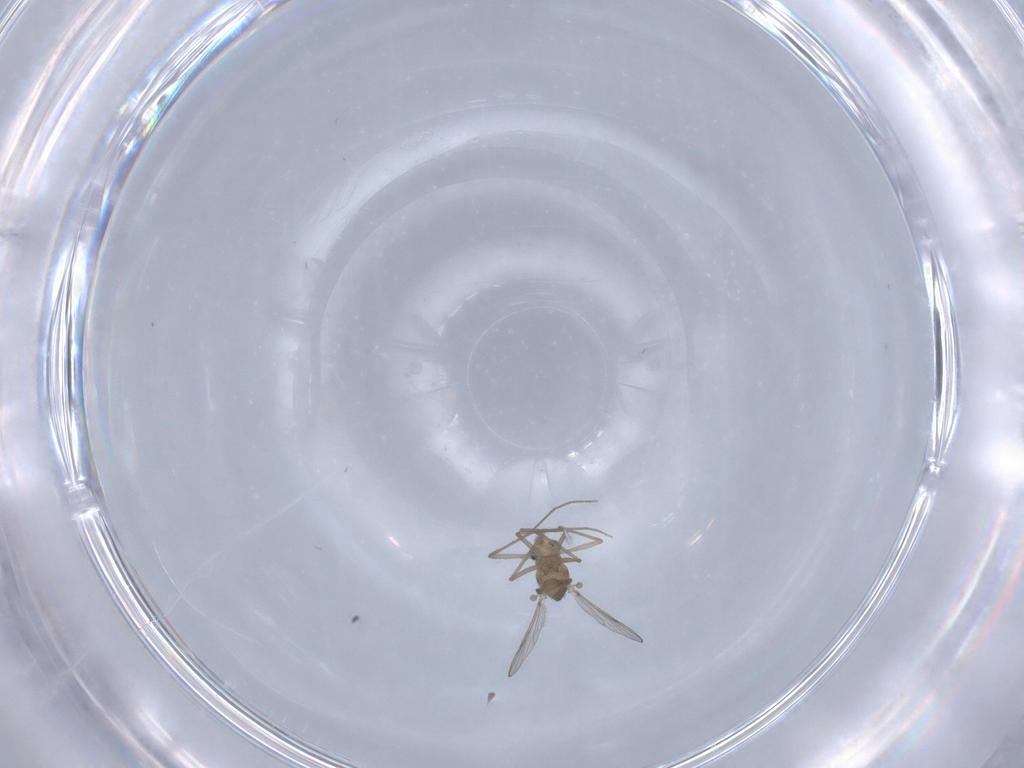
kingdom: Animalia
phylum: Arthropoda
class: Insecta
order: Diptera
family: Chironomidae
